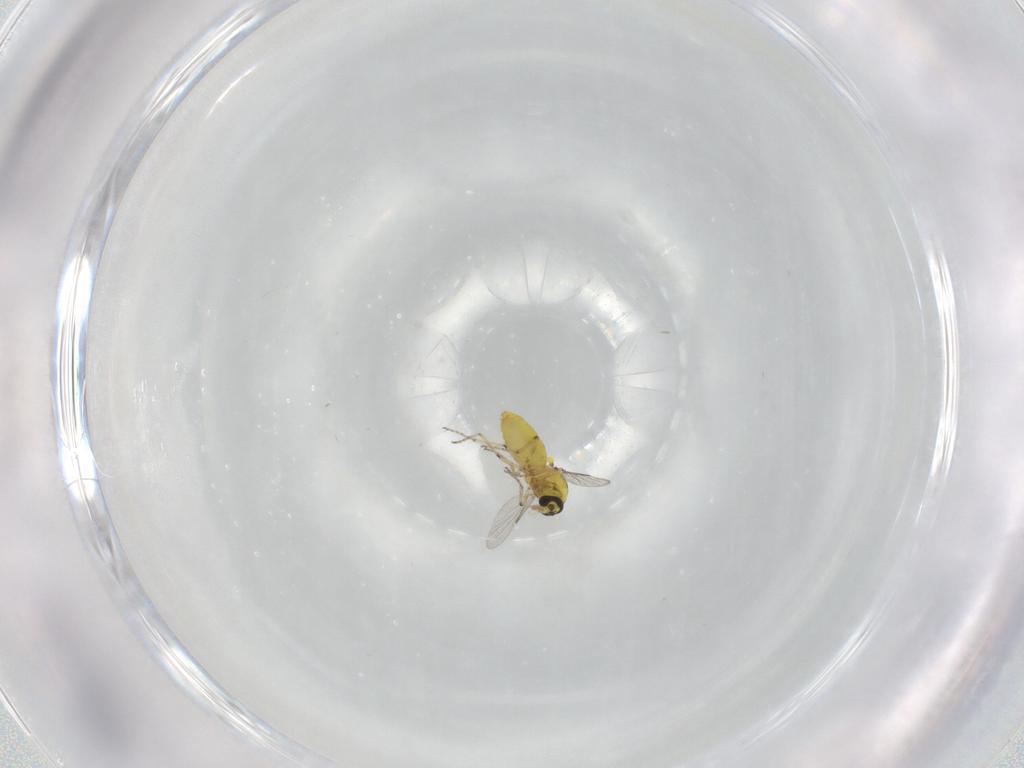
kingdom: Animalia
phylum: Arthropoda
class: Insecta
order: Diptera
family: Ceratopogonidae
